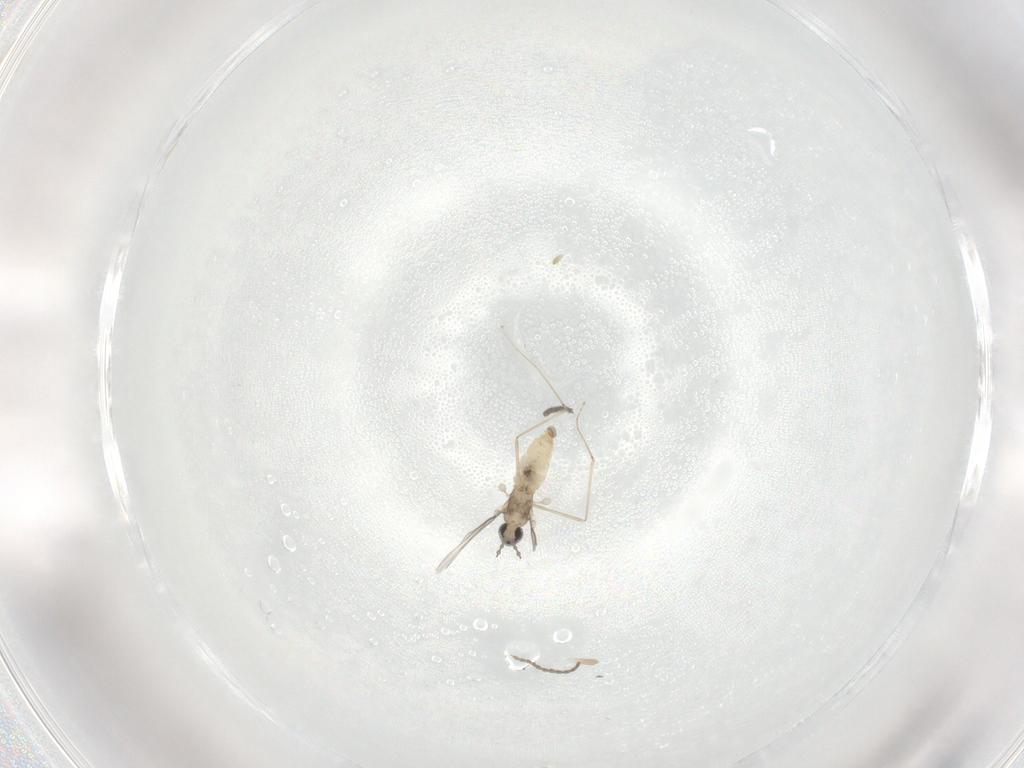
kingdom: Animalia
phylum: Arthropoda
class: Insecta
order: Diptera
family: Cecidomyiidae
